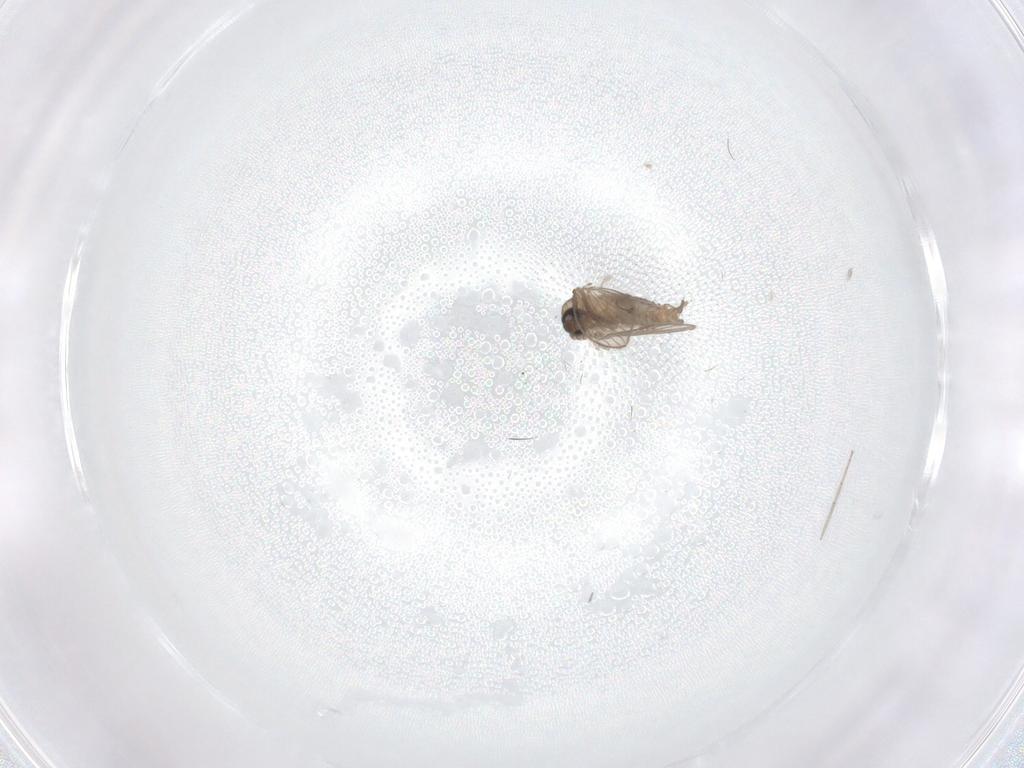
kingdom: Animalia
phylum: Arthropoda
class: Insecta
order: Diptera
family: Psychodidae
